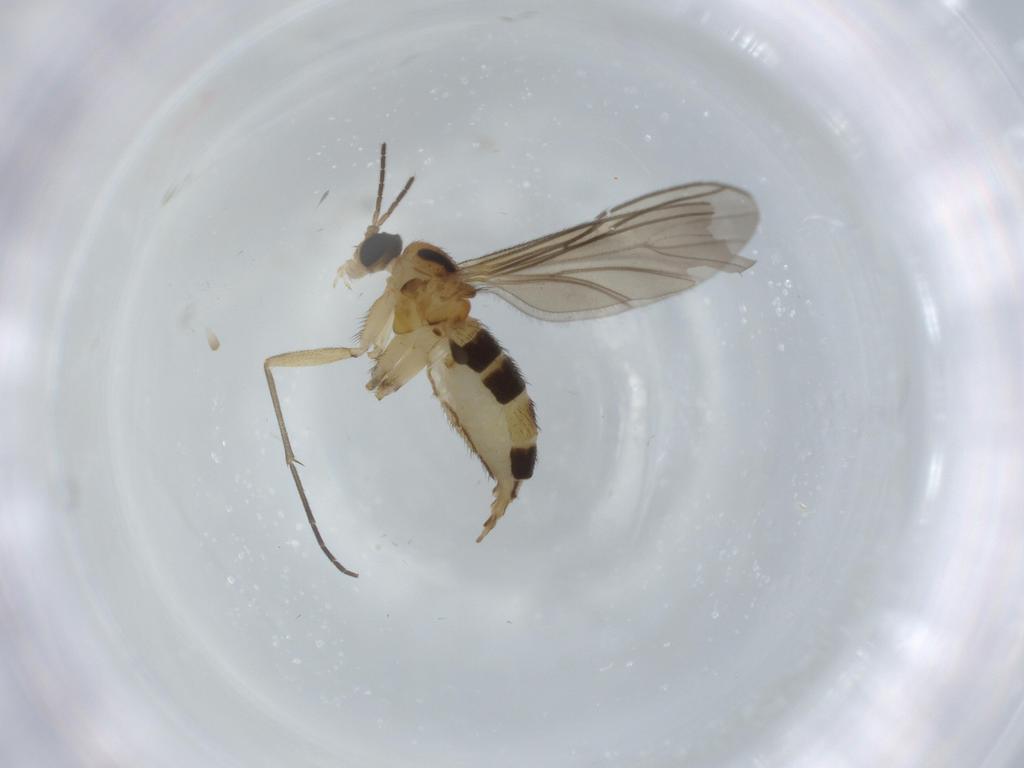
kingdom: Animalia
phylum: Arthropoda
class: Insecta
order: Diptera
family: Sciaridae
